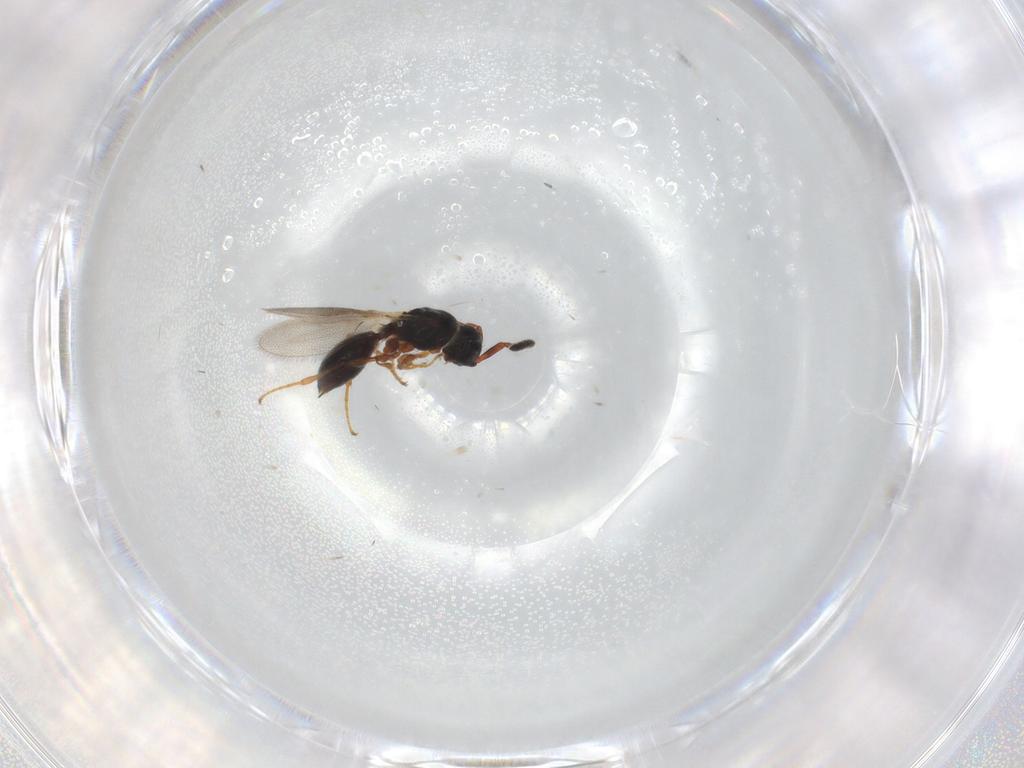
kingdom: Animalia
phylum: Arthropoda
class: Insecta
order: Hymenoptera
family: Diapriidae
